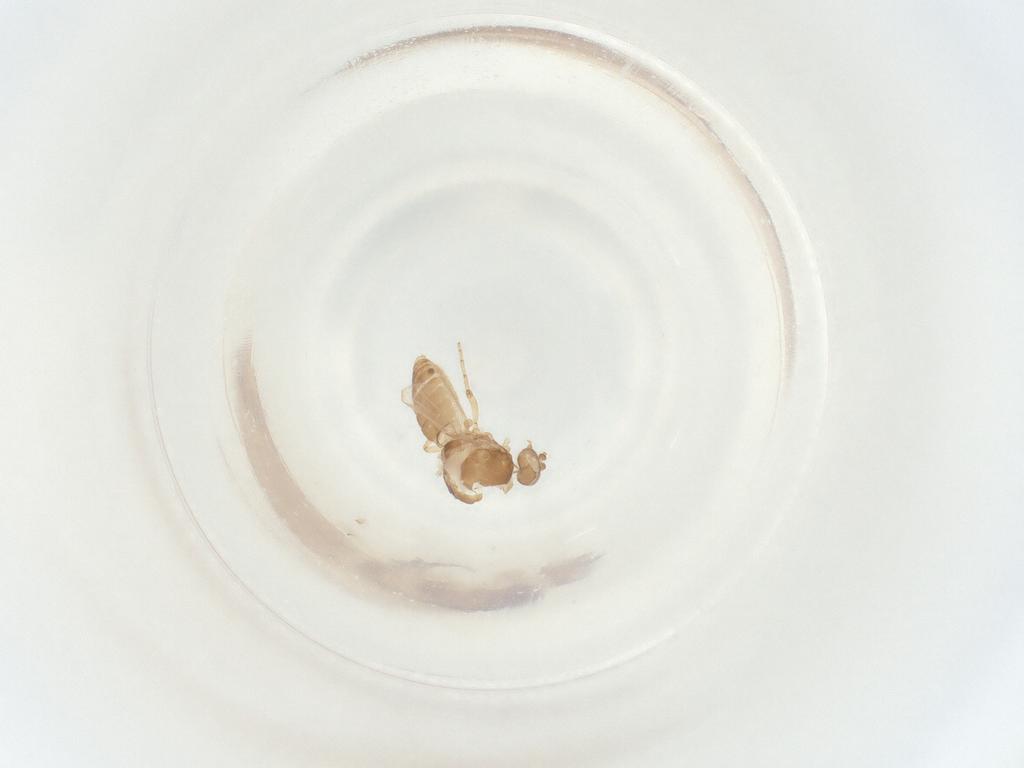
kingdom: Animalia
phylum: Arthropoda
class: Insecta
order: Diptera
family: Ceratopogonidae
